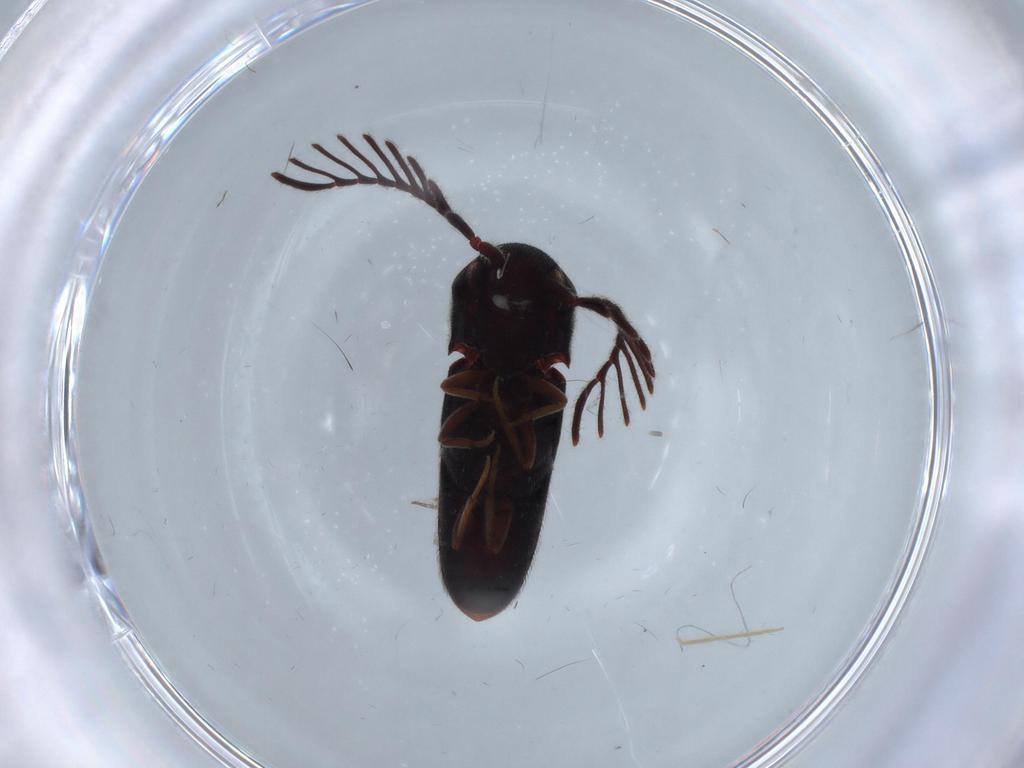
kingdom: Animalia
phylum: Arthropoda
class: Insecta
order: Coleoptera
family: Eucnemidae
